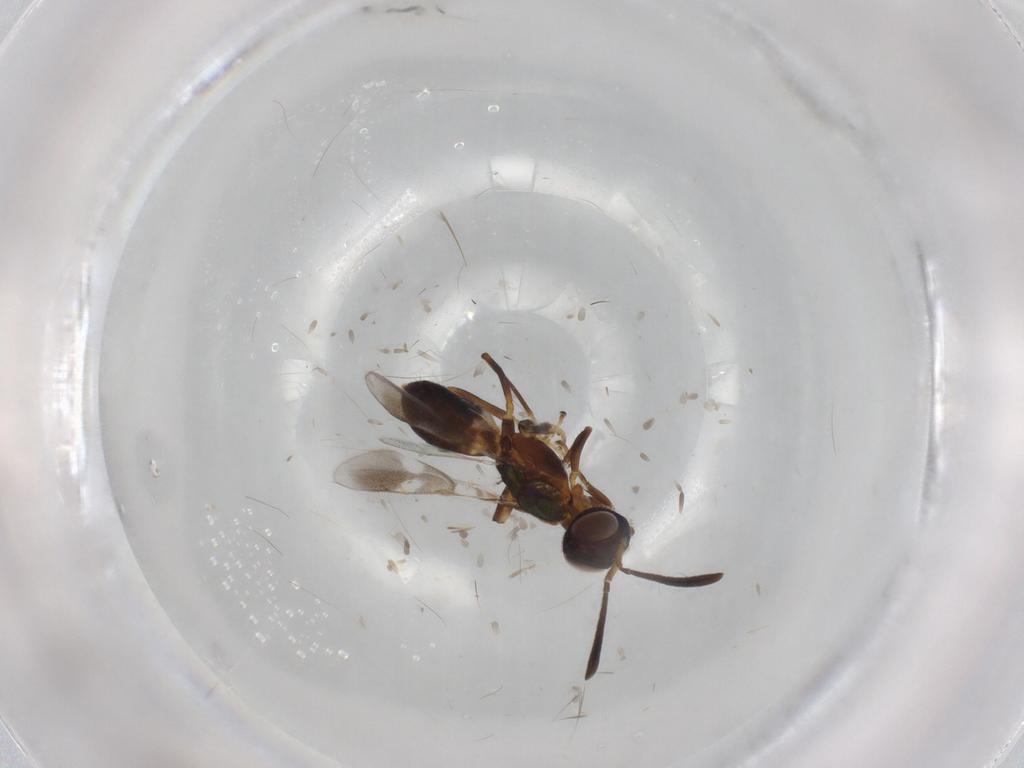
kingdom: Animalia
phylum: Arthropoda
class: Insecta
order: Hymenoptera
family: Eupelmidae
